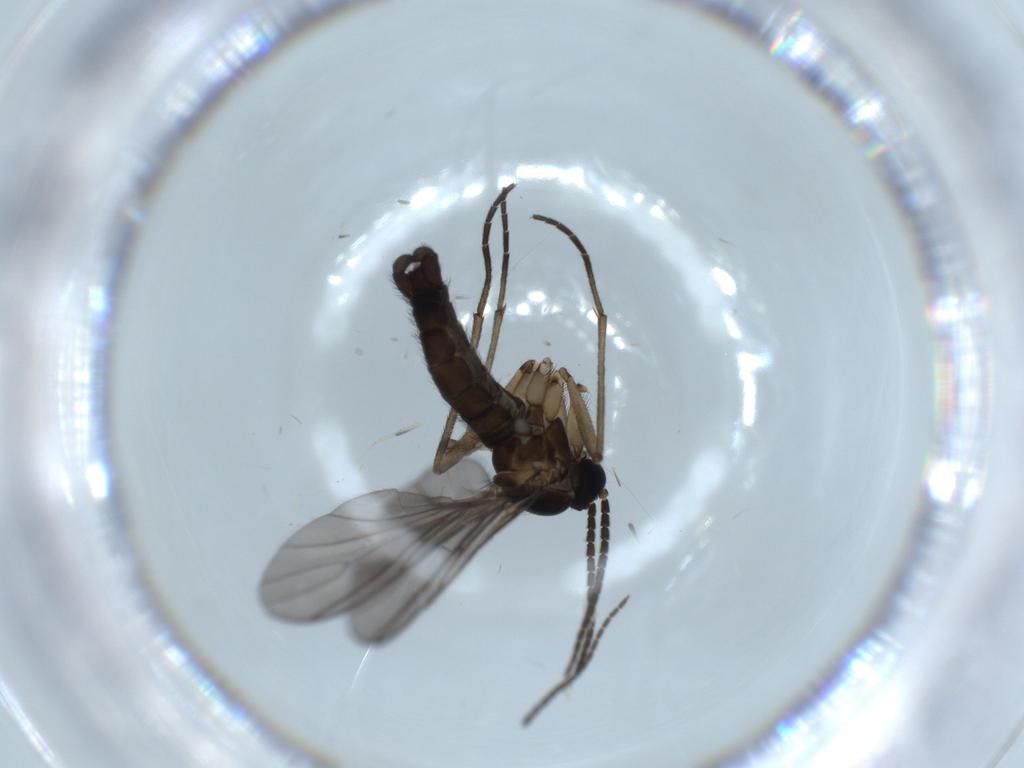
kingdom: Animalia
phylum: Arthropoda
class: Insecta
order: Diptera
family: Sciaridae
